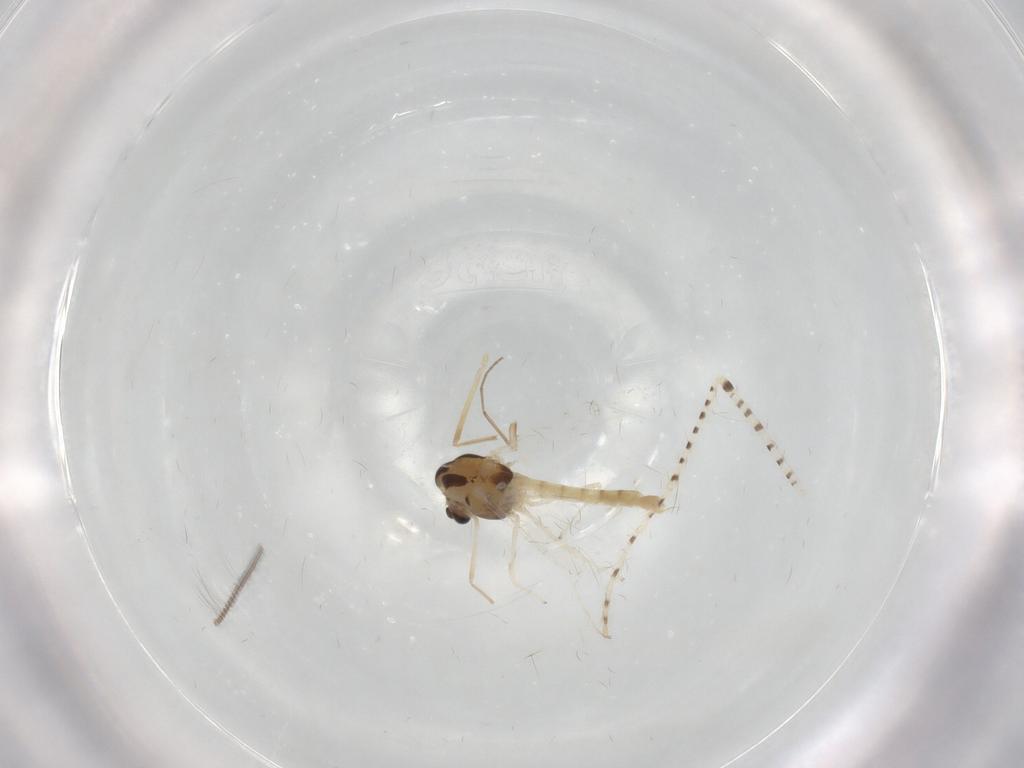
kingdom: Animalia
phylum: Arthropoda
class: Insecta
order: Diptera
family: Chironomidae
